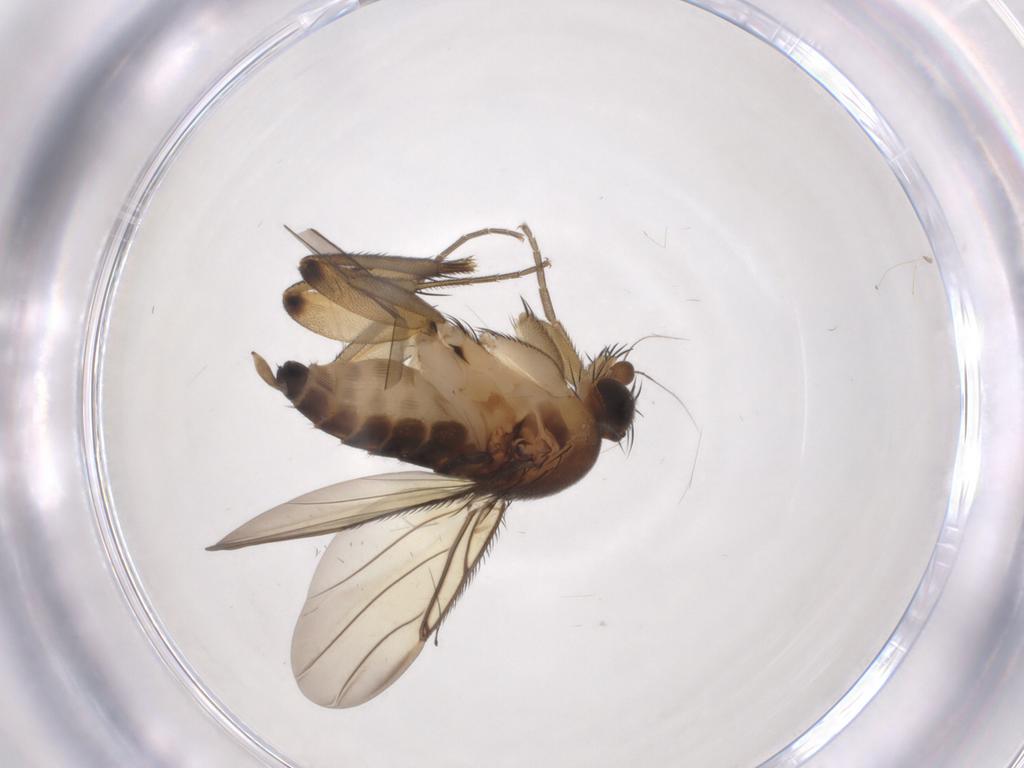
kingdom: Animalia
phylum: Arthropoda
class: Insecta
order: Diptera
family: Phoridae
